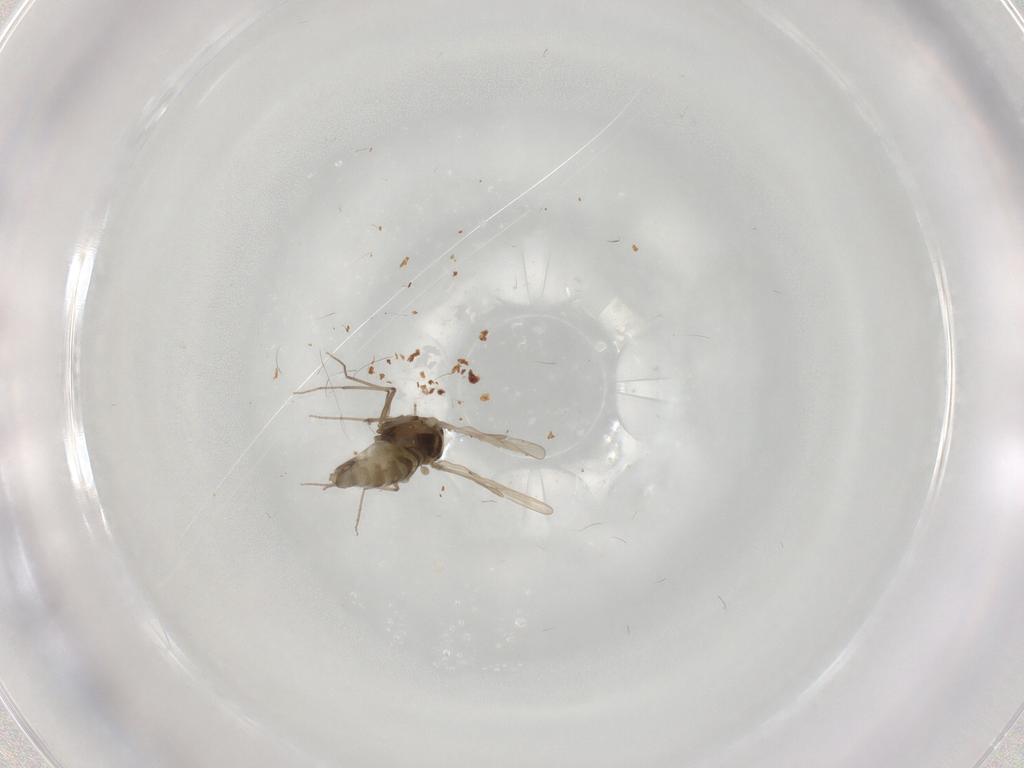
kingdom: Animalia
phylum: Arthropoda
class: Insecta
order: Diptera
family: Chironomidae
